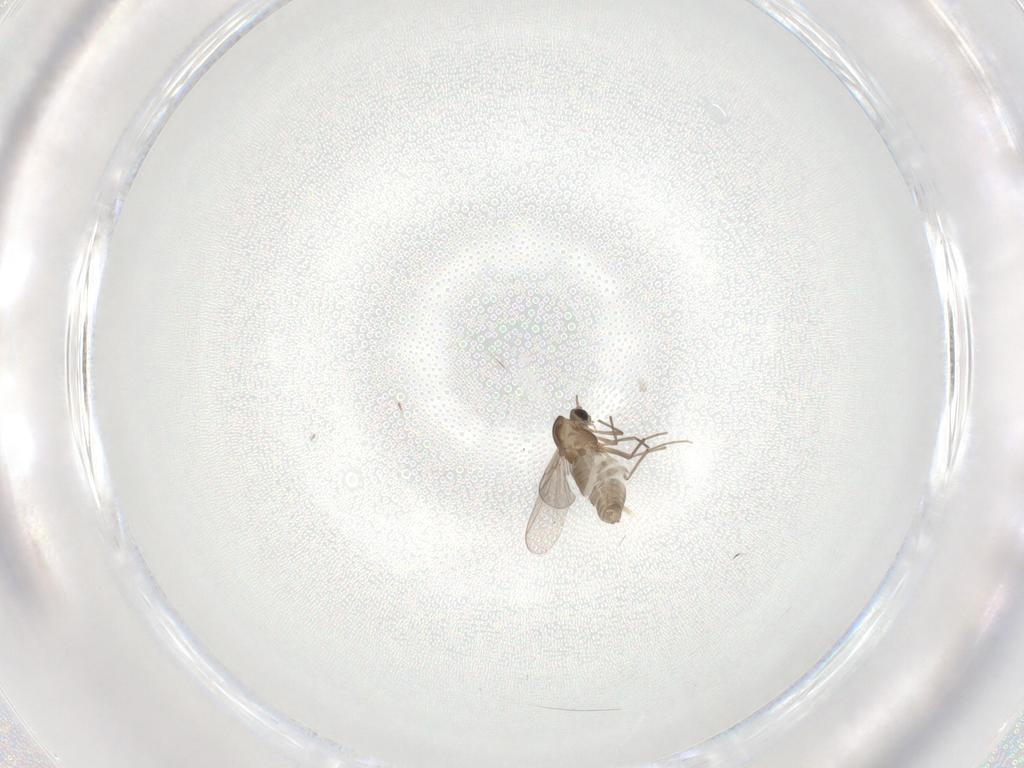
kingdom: Animalia
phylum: Arthropoda
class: Insecta
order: Diptera
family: Chironomidae
